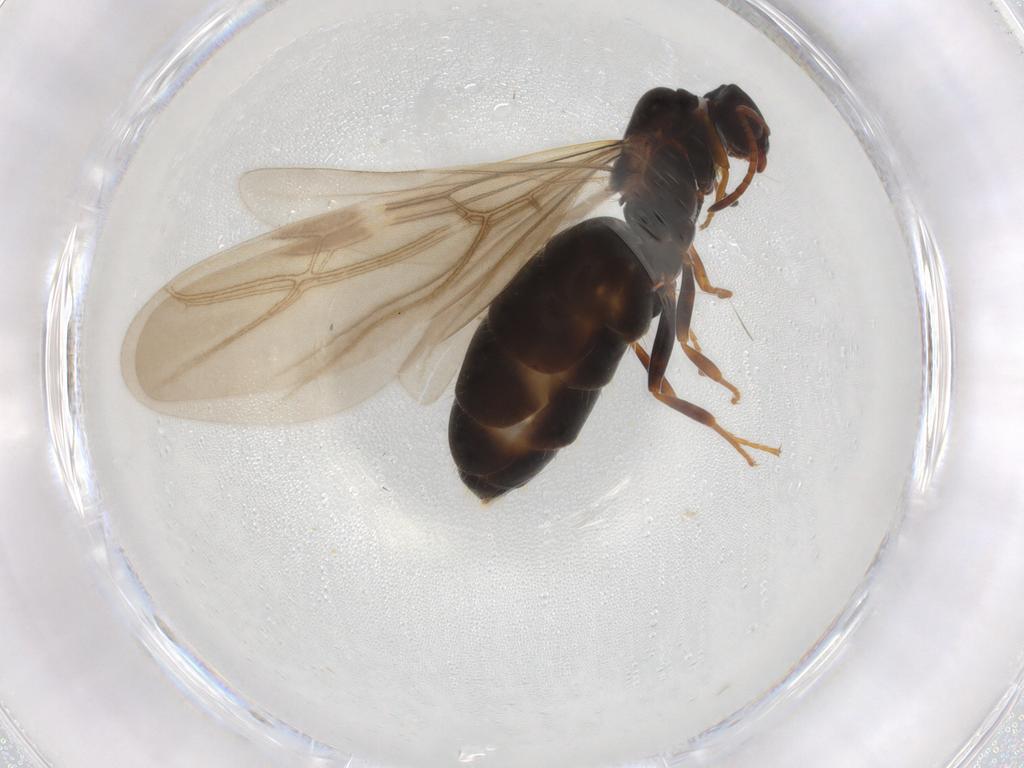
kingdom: Animalia
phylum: Arthropoda
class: Insecta
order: Hymenoptera
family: Formicidae
